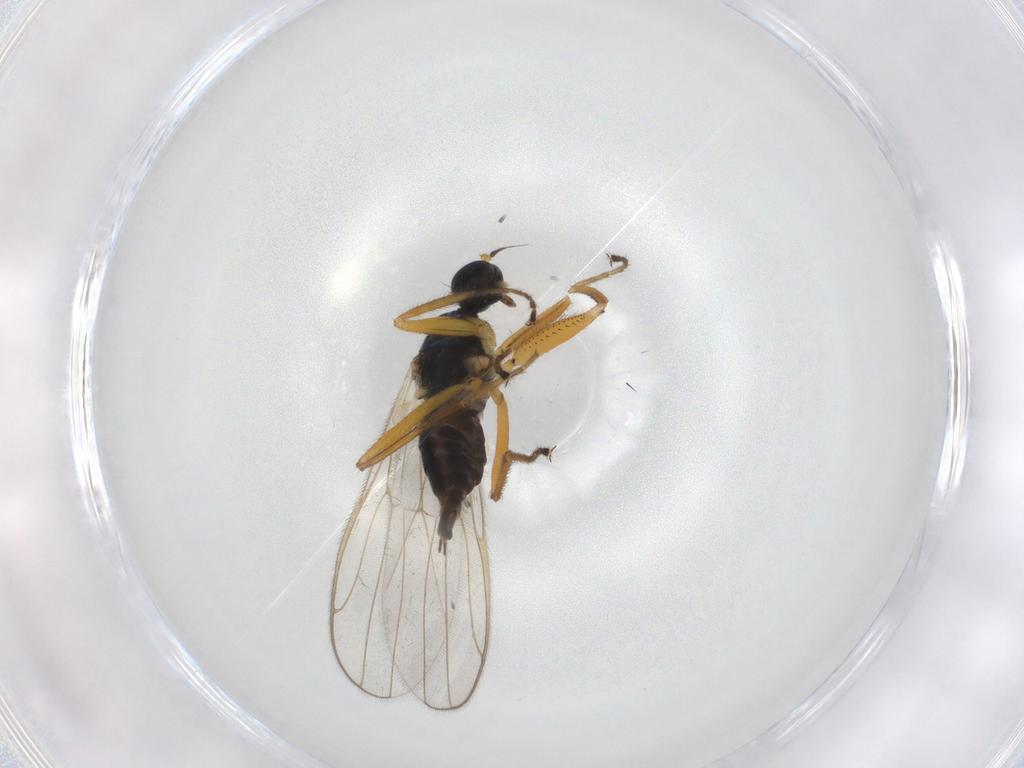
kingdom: Animalia
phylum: Arthropoda
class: Insecta
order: Diptera
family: Hybotidae
